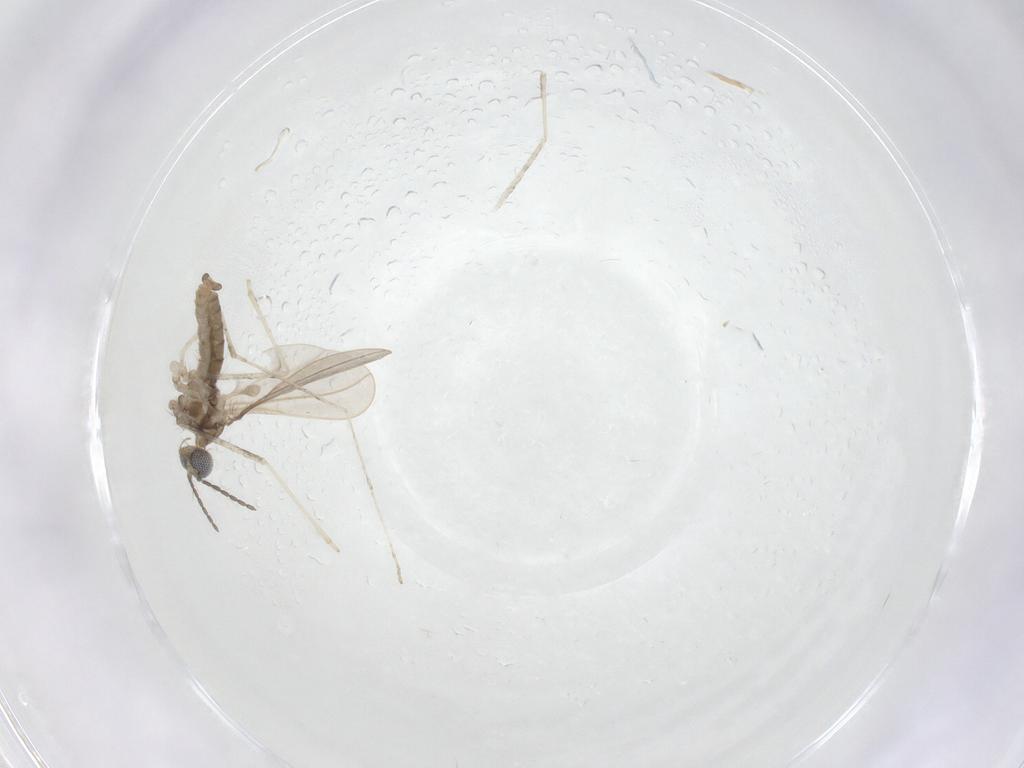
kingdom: Animalia
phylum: Arthropoda
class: Insecta
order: Diptera
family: Cecidomyiidae
